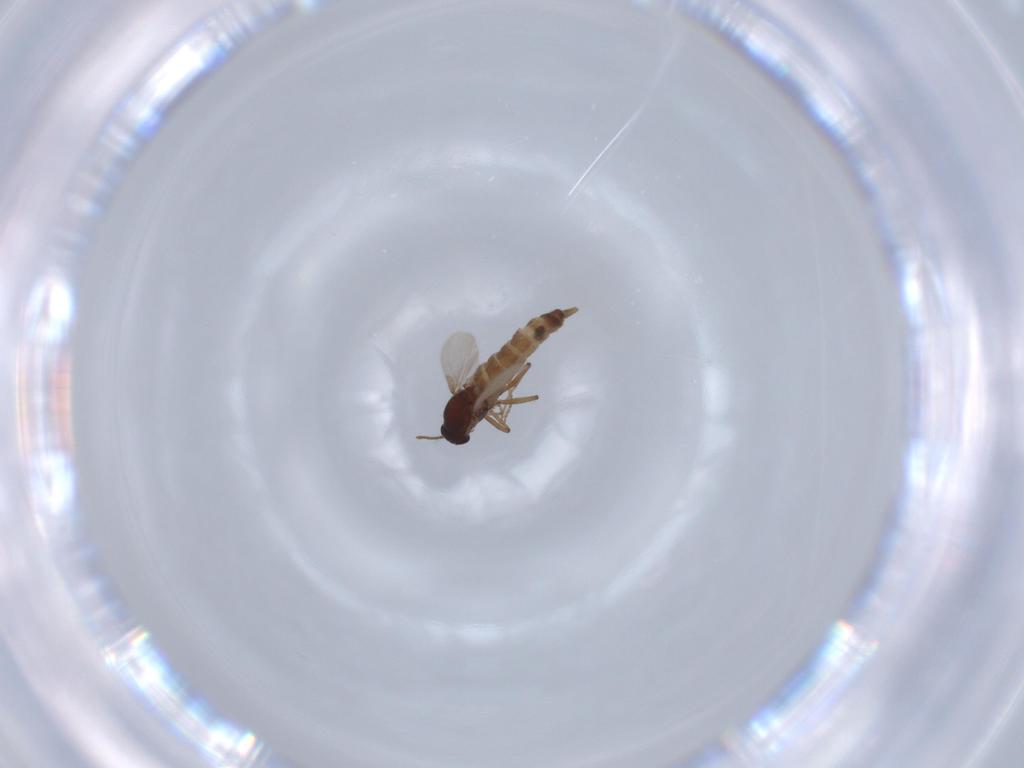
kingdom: Animalia
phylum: Arthropoda
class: Insecta
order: Diptera
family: Ceratopogonidae
